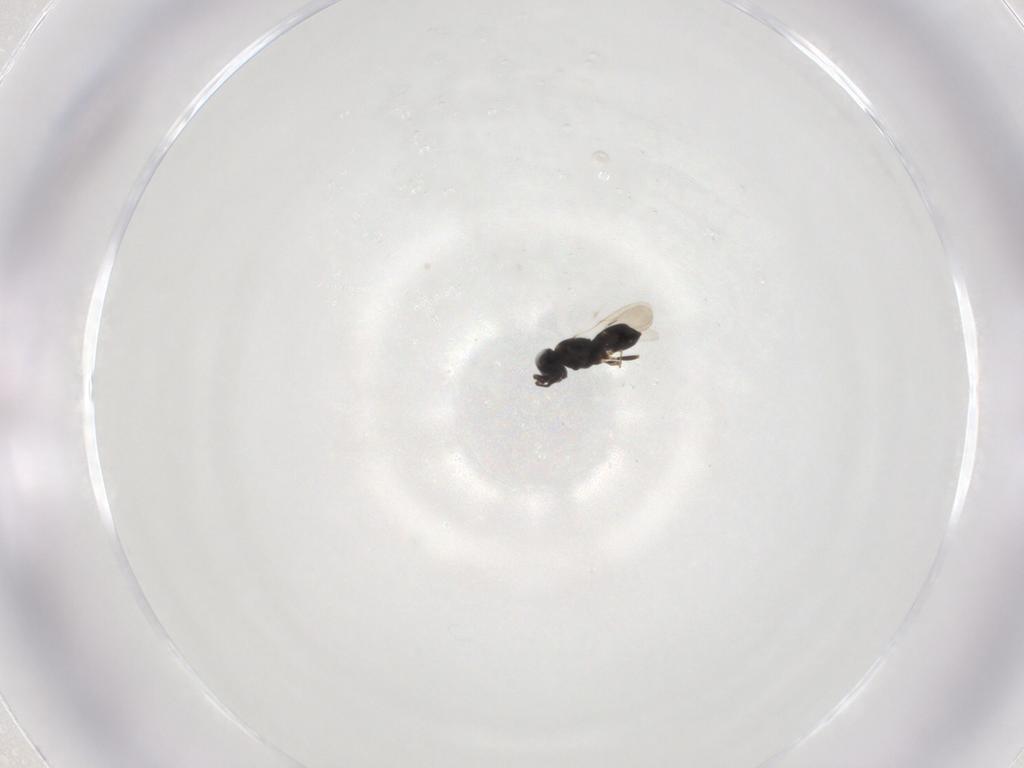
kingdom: Animalia
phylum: Arthropoda
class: Insecta
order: Hymenoptera
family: Scelionidae
